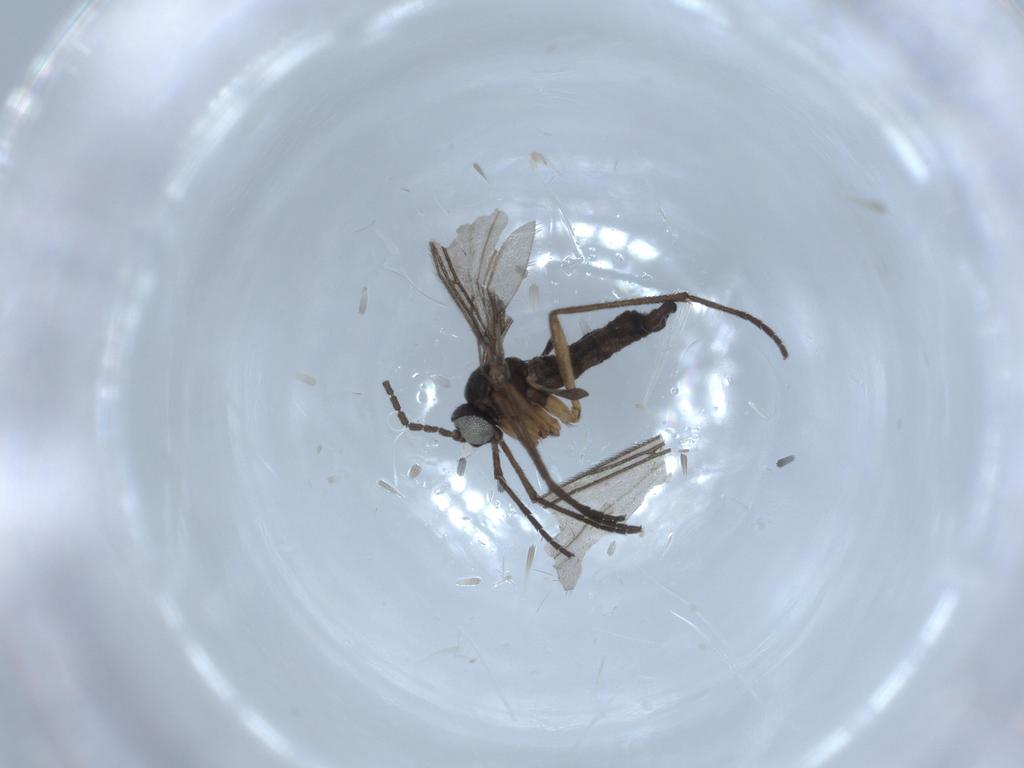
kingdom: Animalia
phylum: Arthropoda
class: Insecta
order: Diptera
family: Sciaridae
